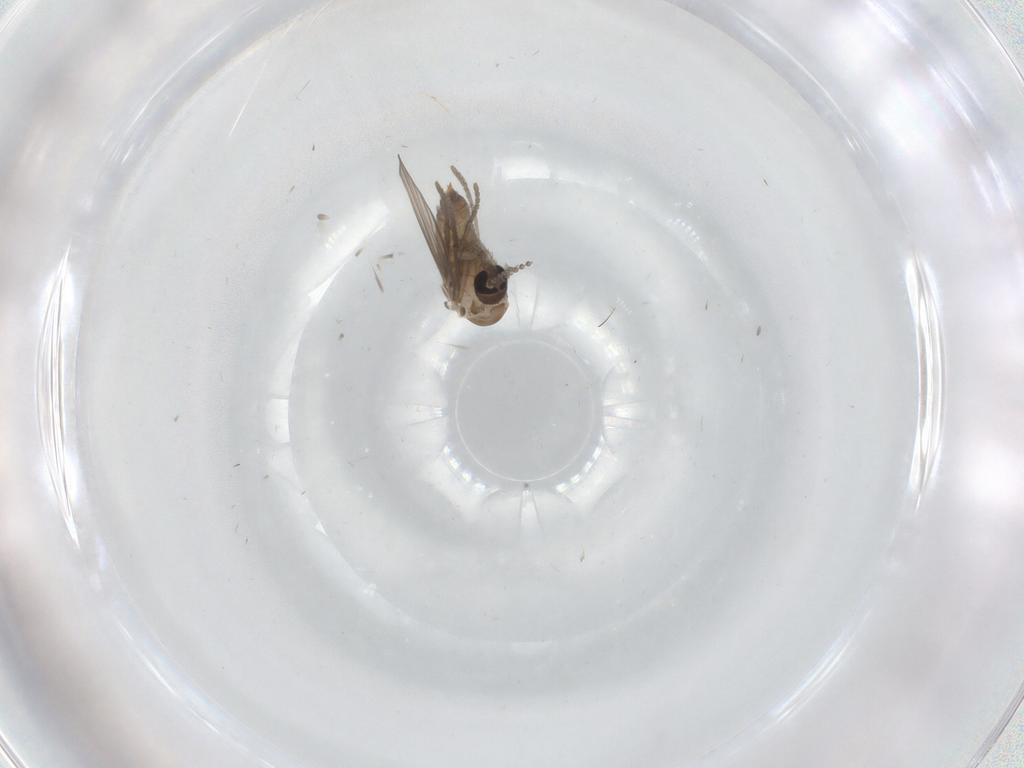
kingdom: Animalia
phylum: Arthropoda
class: Insecta
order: Diptera
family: Psychodidae
